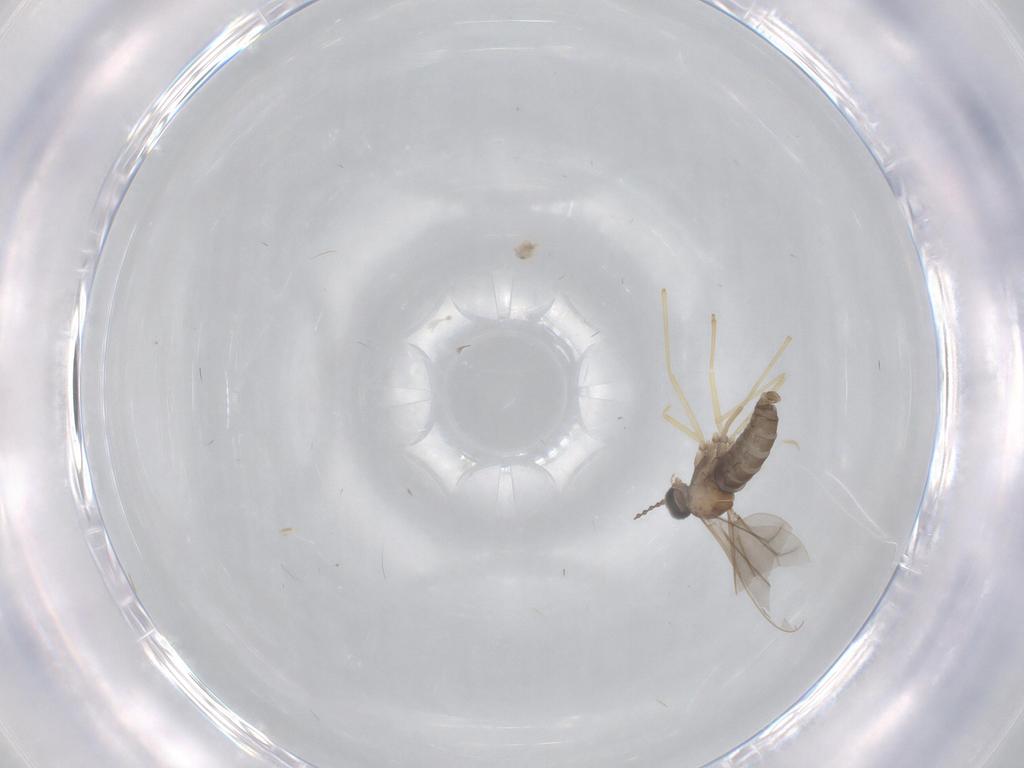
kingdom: Animalia
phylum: Arthropoda
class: Insecta
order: Diptera
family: Cecidomyiidae
